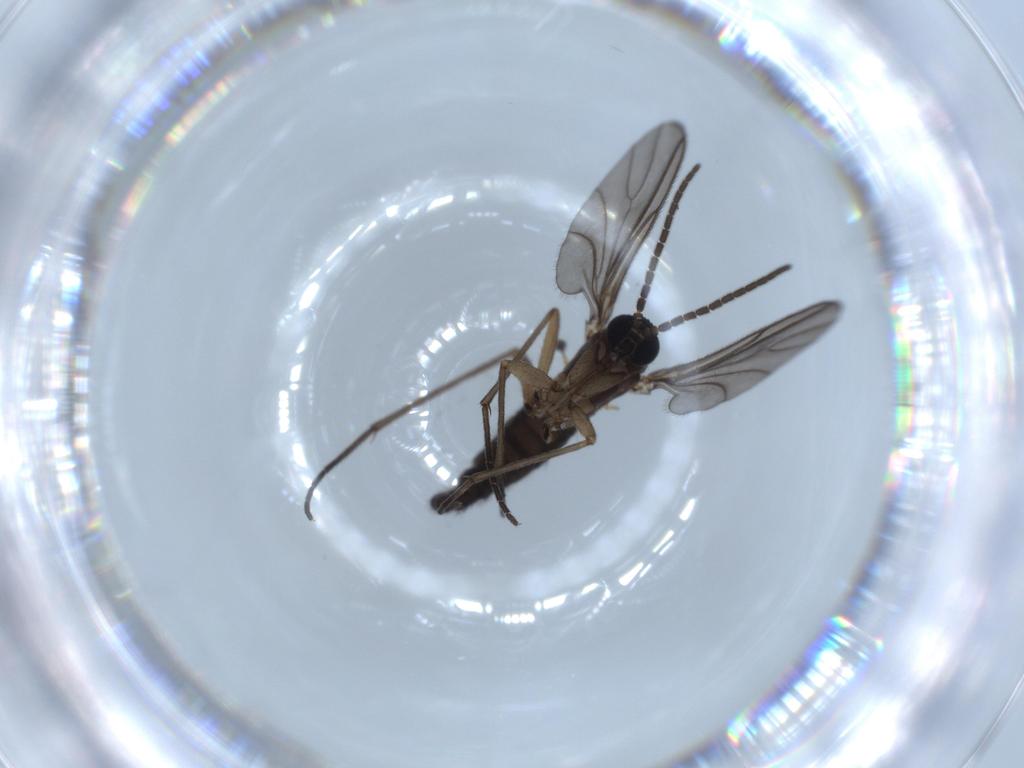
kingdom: Animalia
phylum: Arthropoda
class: Insecta
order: Diptera
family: Sciaridae
